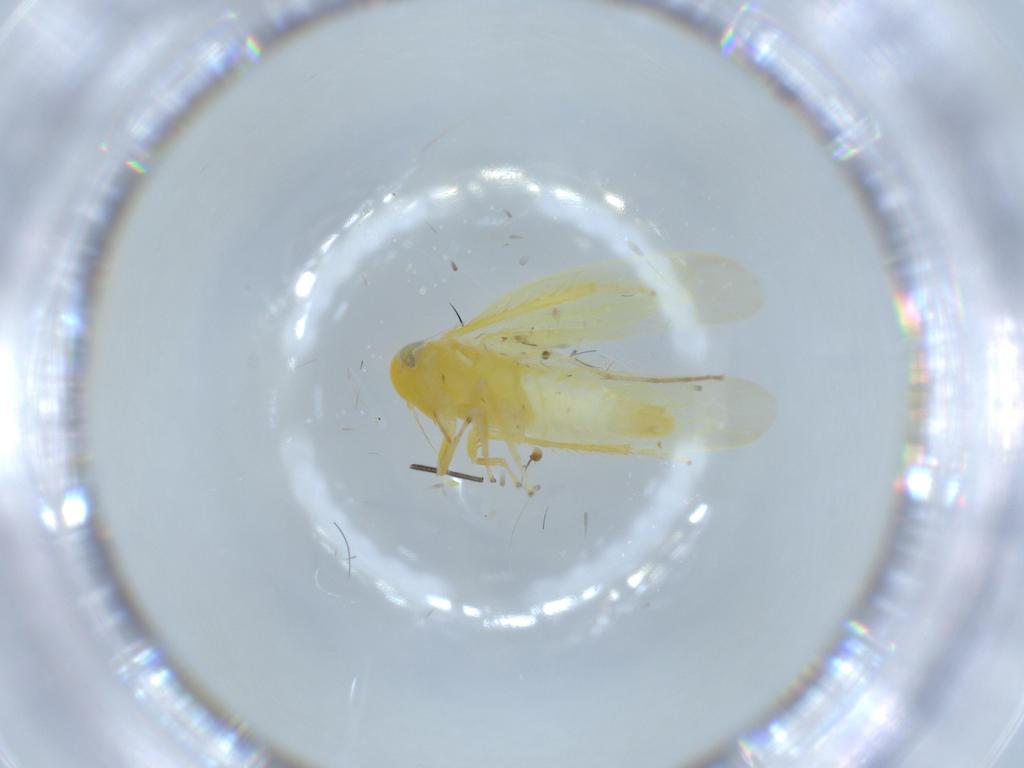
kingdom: Animalia
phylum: Arthropoda
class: Insecta
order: Hemiptera
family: Cicadellidae
